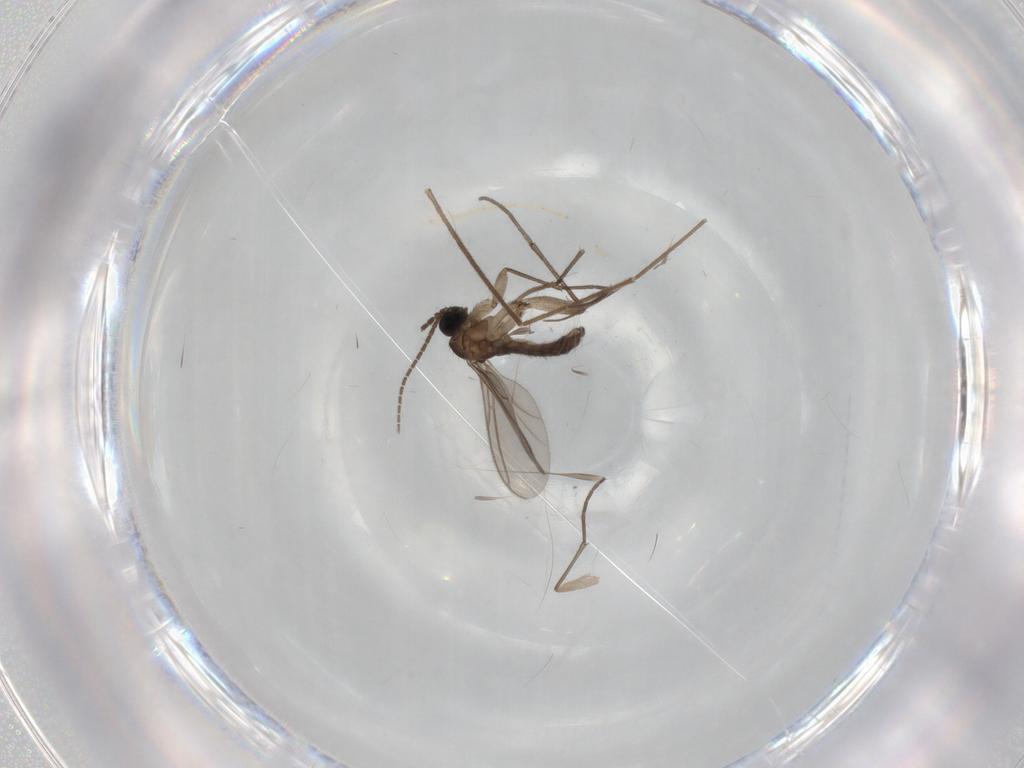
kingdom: Animalia
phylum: Arthropoda
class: Insecta
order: Diptera
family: Sciaridae
